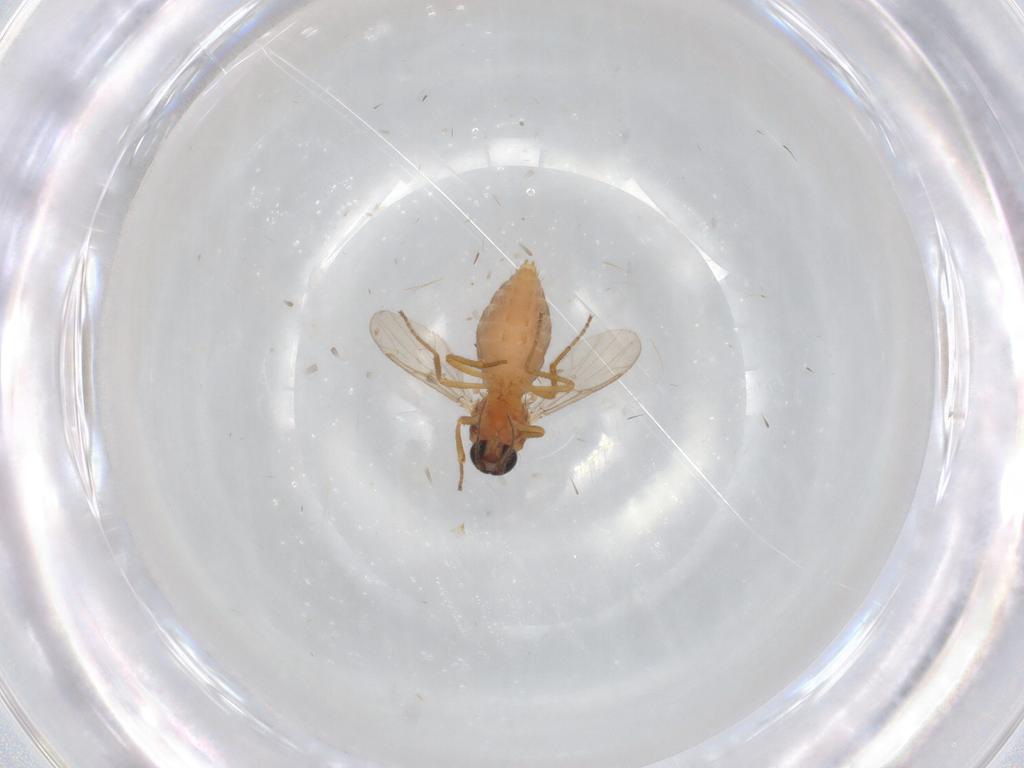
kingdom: Animalia
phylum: Arthropoda
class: Insecta
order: Diptera
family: Ceratopogonidae
